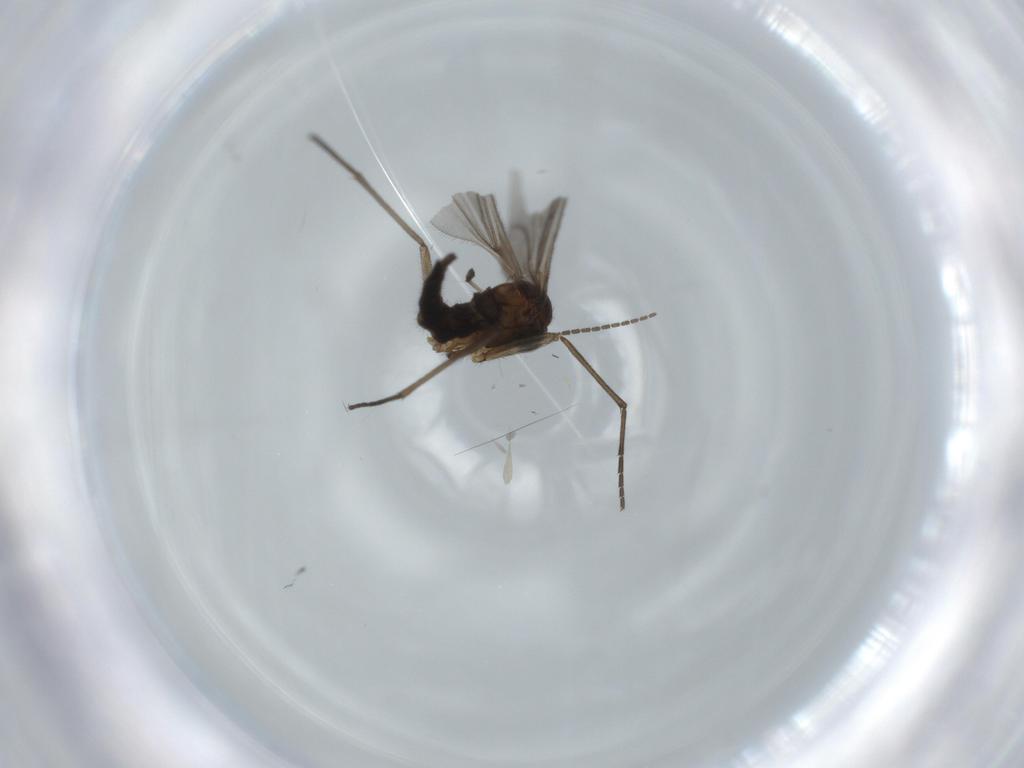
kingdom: Animalia
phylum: Arthropoda
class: Insecta
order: Diptera
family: Sciaridae
